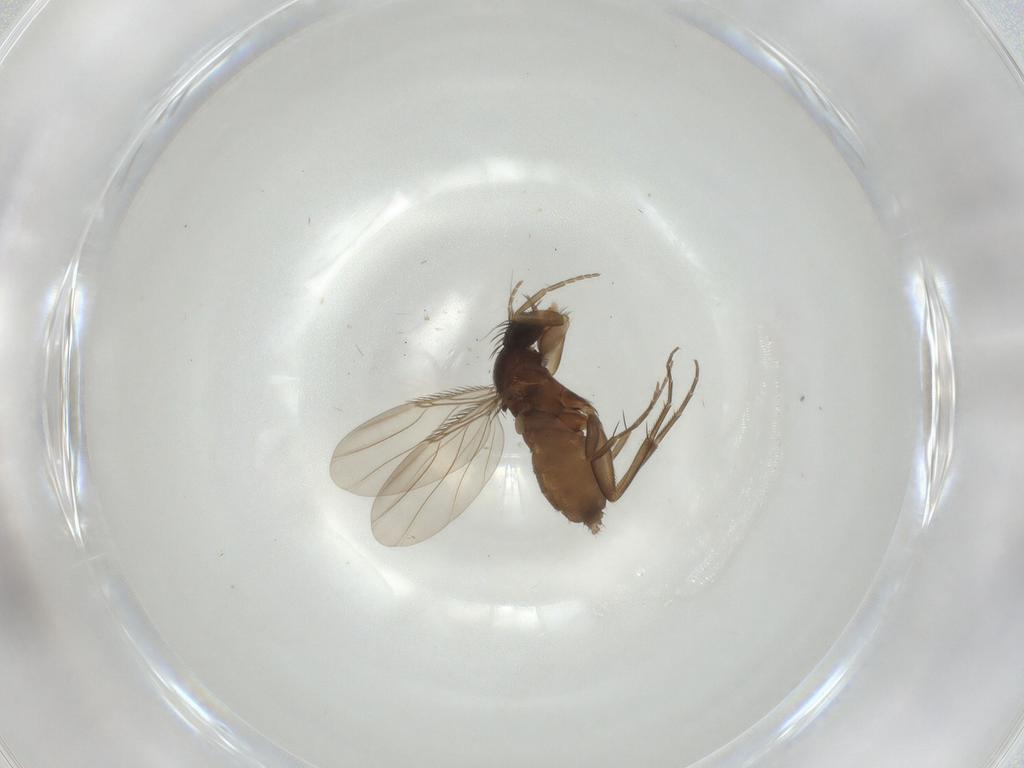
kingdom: Animalia
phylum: Arthropoda
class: Insecta
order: Diptera
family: Phoridae
